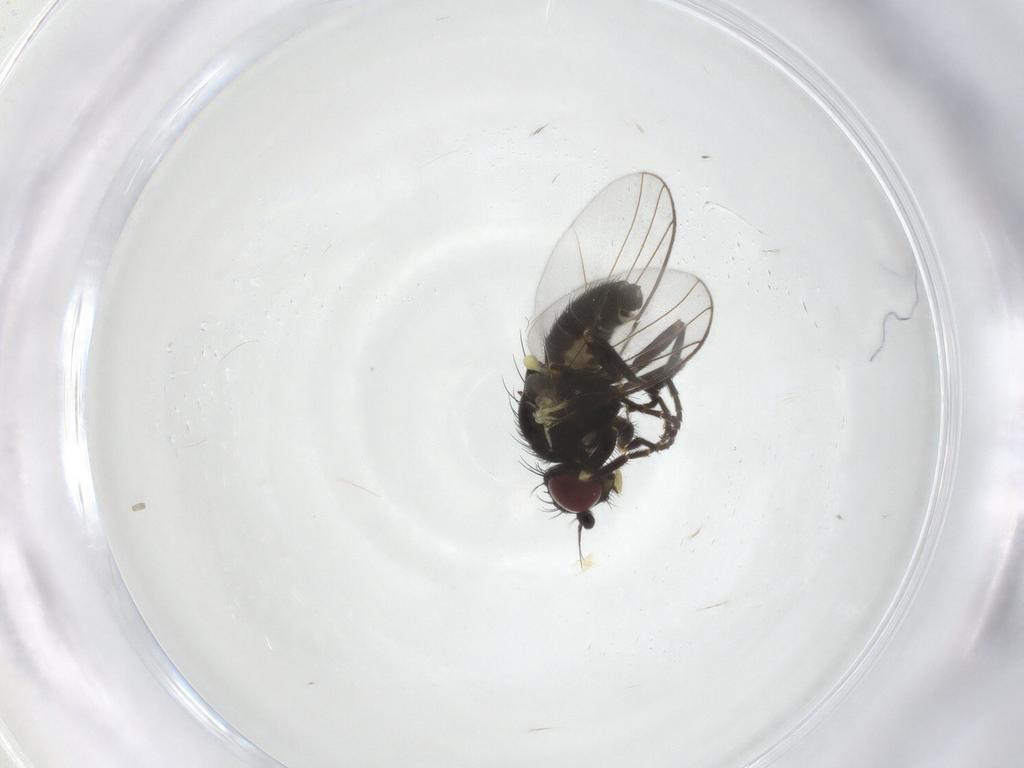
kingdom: Animalia
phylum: Arthropoda
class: Insecta
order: Diptera
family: Agromyzidae
